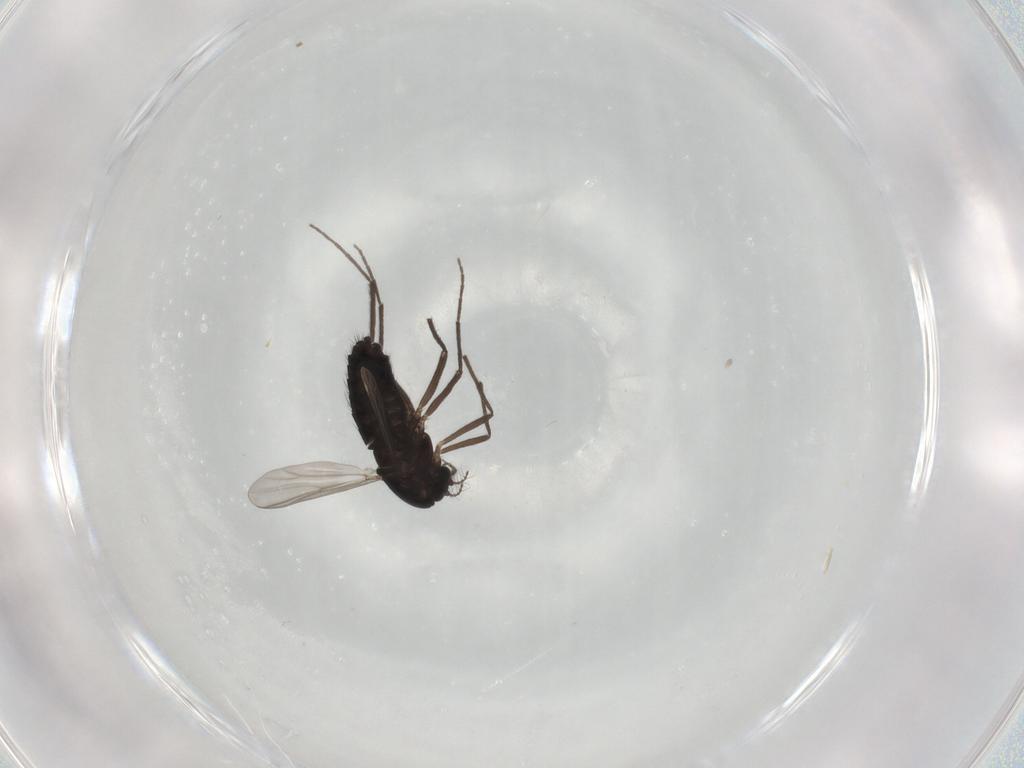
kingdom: Animalia
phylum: Arthropoda
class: Insecta
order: Diptera
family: Chironomidae
